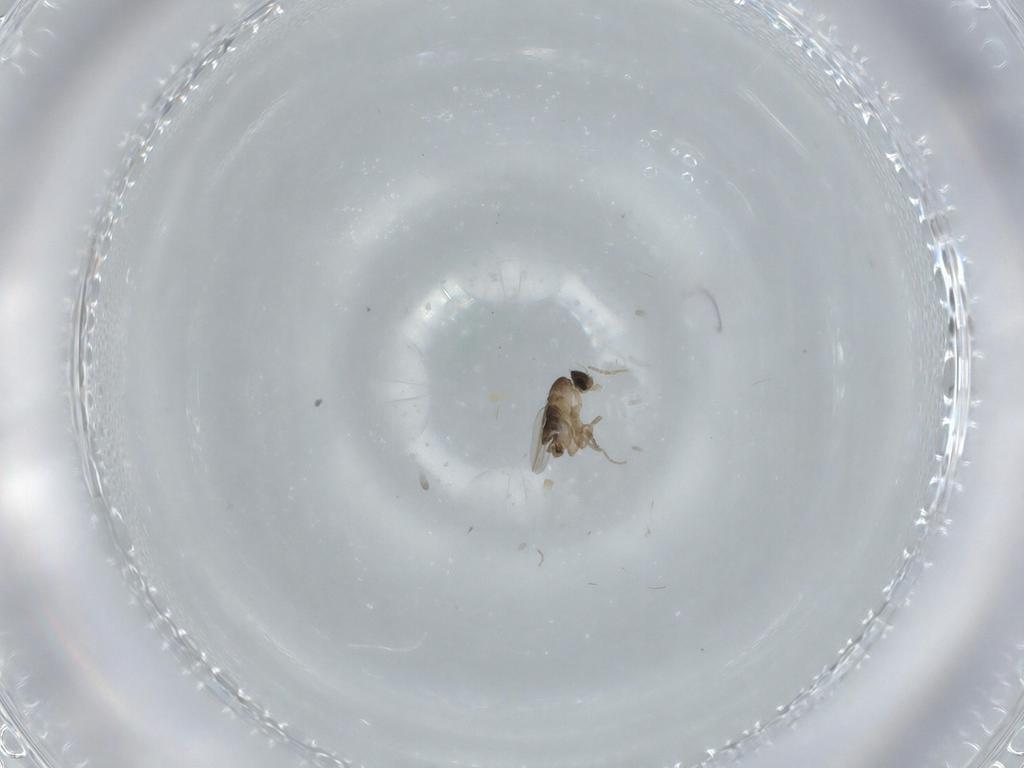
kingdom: Animalia
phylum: Arthropoda
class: Insecta
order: Diptera
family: Phoridae
